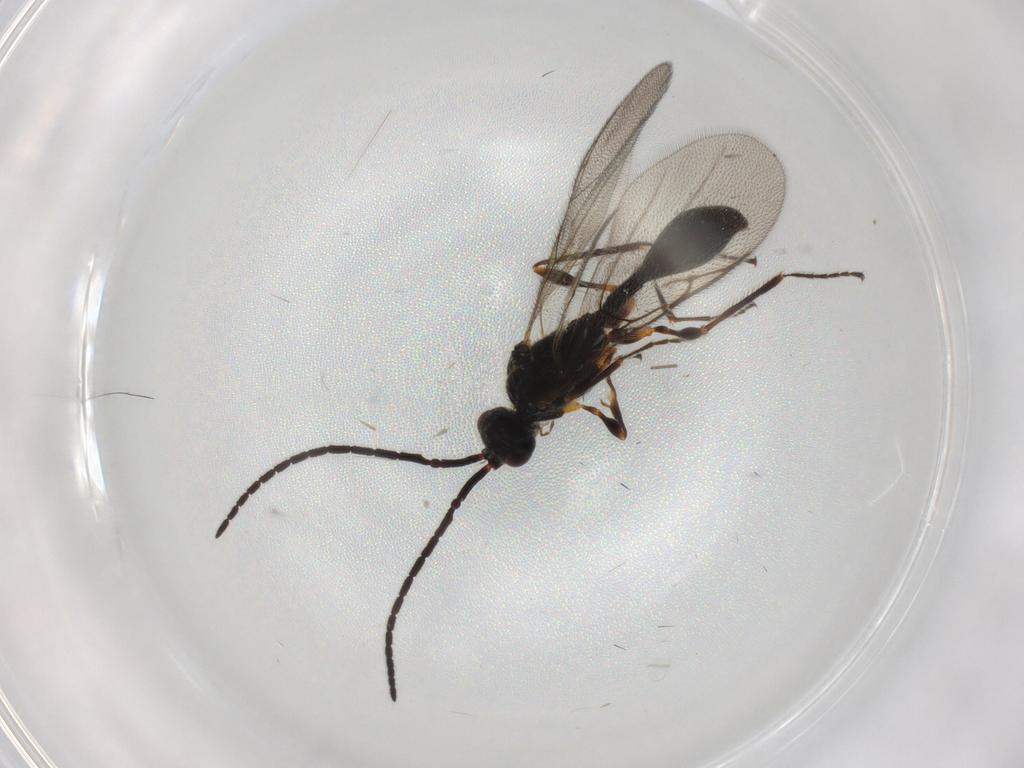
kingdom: Animalia
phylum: Arthropoda
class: Insecta
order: Hymenoptera
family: Diapriidae
